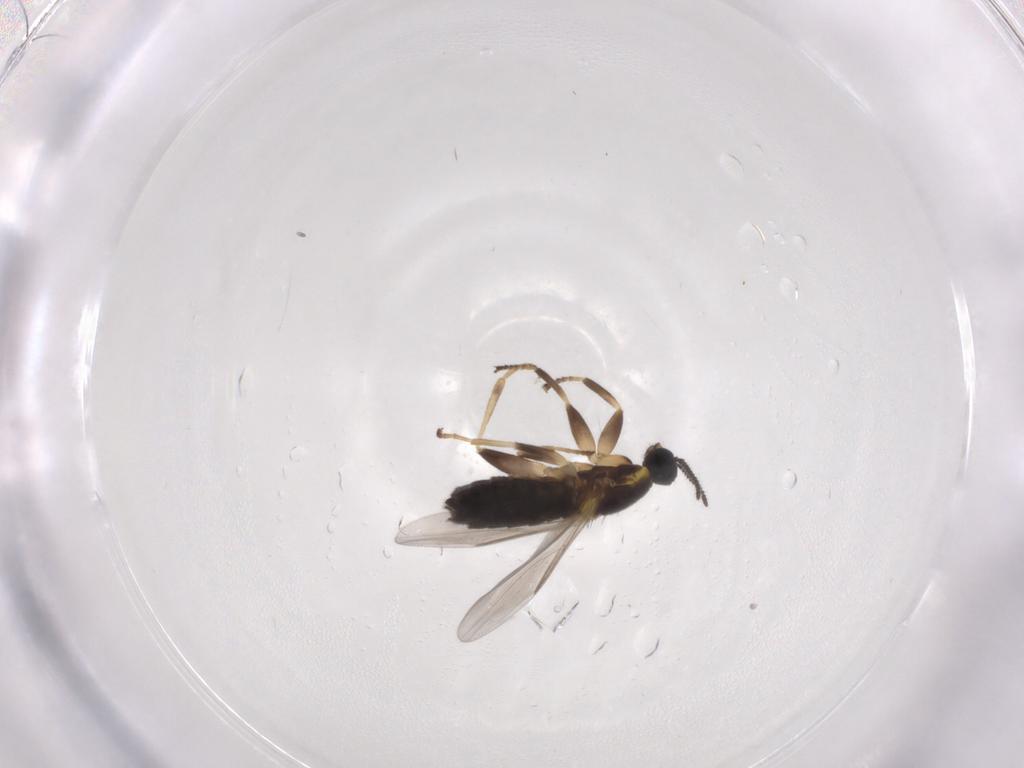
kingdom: Animalia
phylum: Arthropoda
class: Insecta
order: Diptera
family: Scatopsidae
